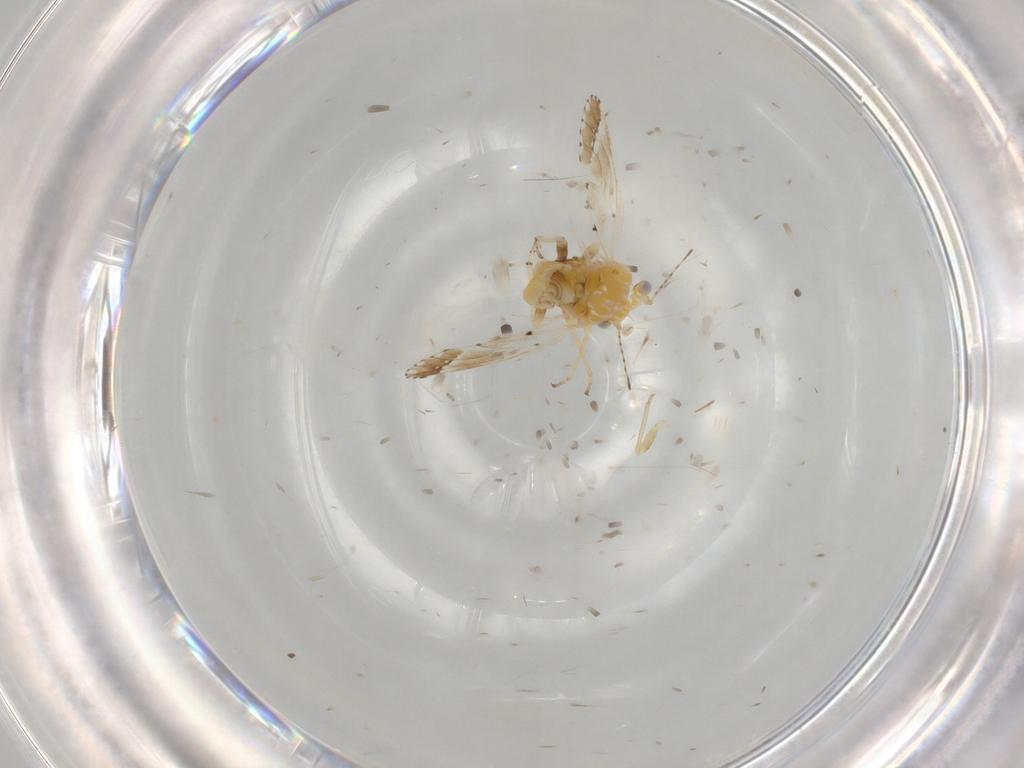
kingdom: Animalia
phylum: Arthropoda
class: Insecta
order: Hemiptera
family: Psyllidae
